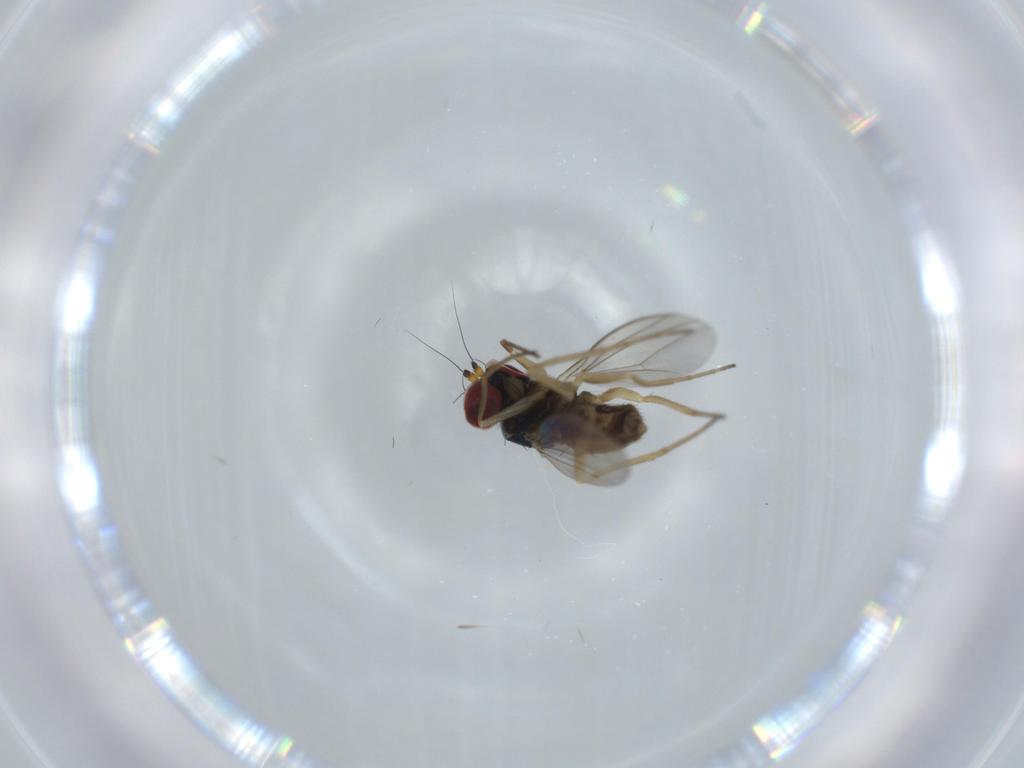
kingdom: Animalia
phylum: Arthropoda
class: Insecta
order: Diptera
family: Dolichopodidae
